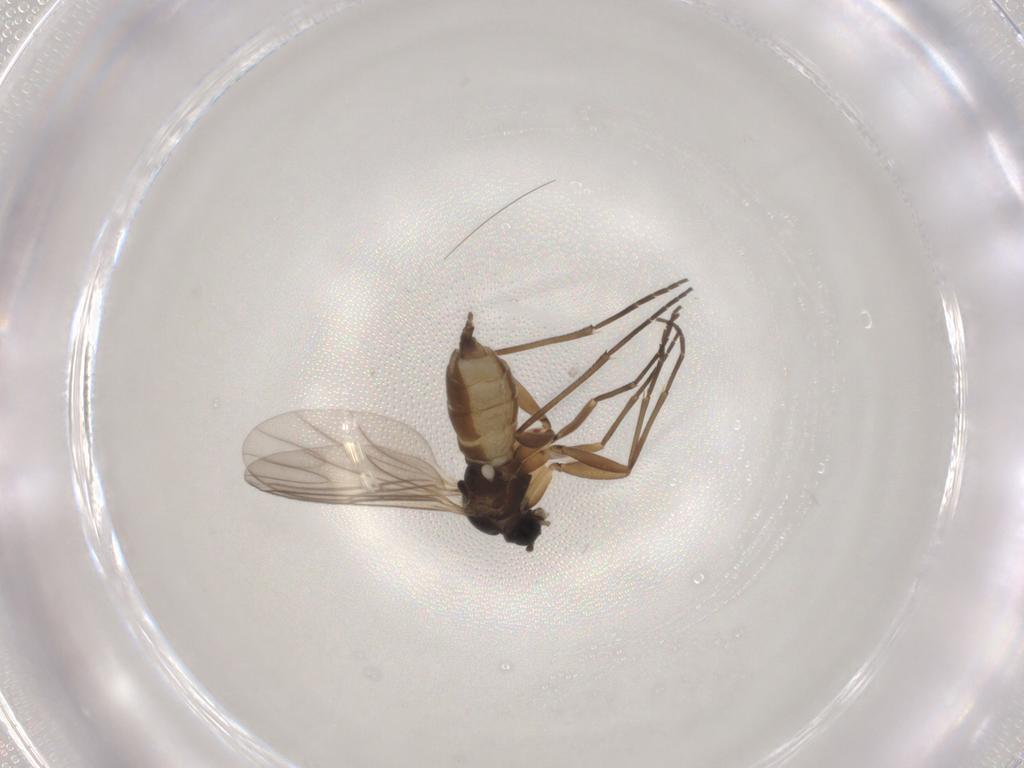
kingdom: Animalia
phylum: Arthropoda
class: Insecta
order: Diptera
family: Sciaridae
